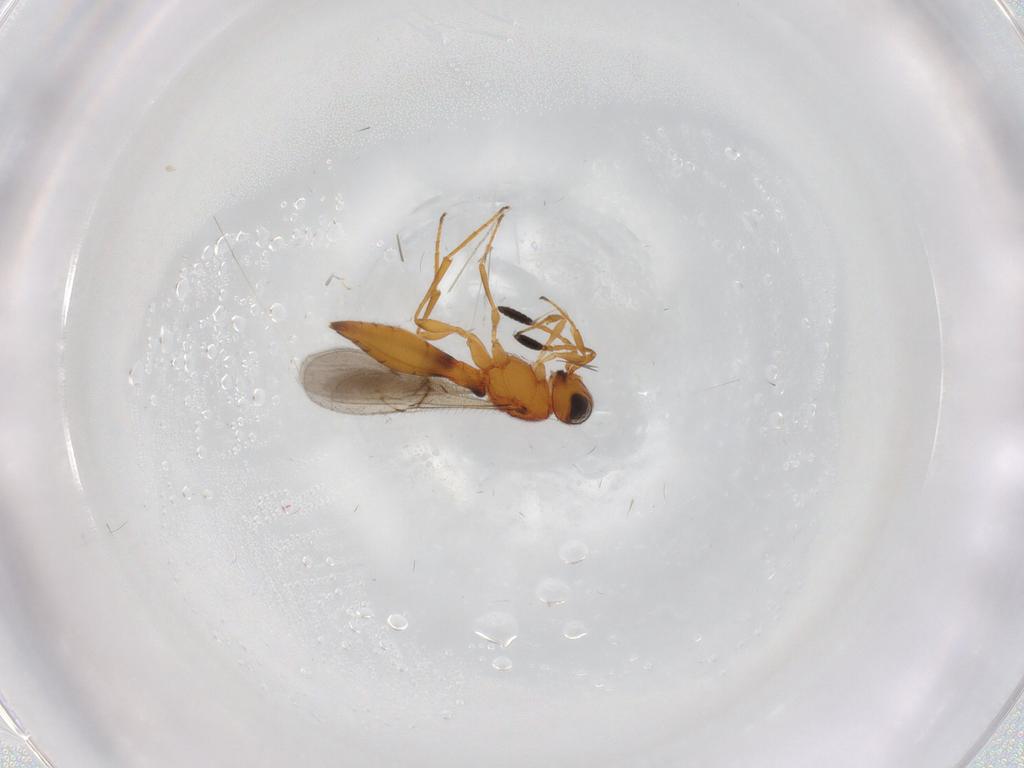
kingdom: Animalia
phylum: Arthropoda
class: Insecta
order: Hymenoptera
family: Scelionidae
